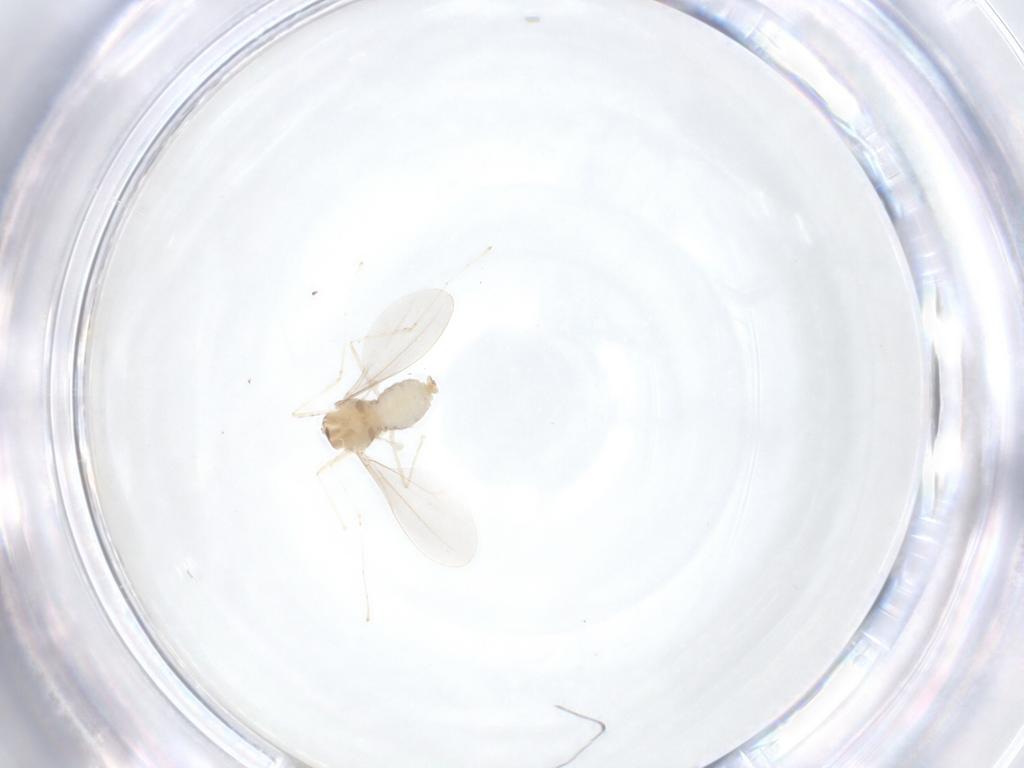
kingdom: Animalia
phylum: Arthropoda
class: Insecta
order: Diptera
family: Cecidomyiidae
